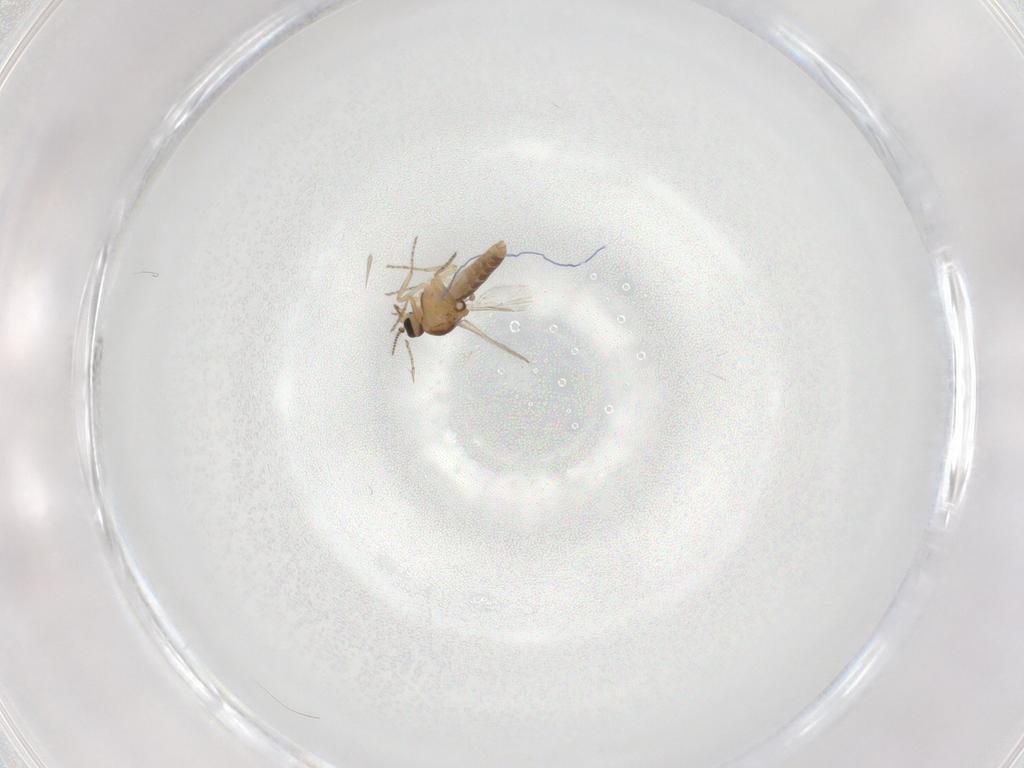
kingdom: Animalia
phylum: Arthropoda
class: Insecta
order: Diptera
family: Ceratopogonidae
